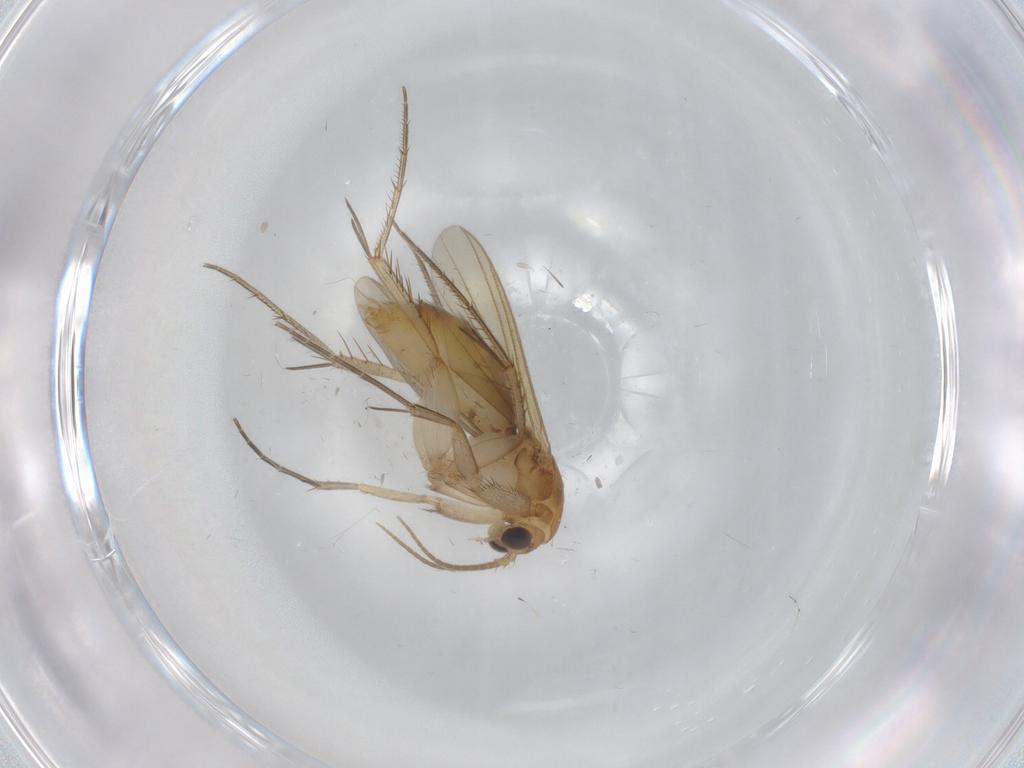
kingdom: Animalia
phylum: Arthropoda
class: Insecta
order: Diptera
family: Mycetophilidae
